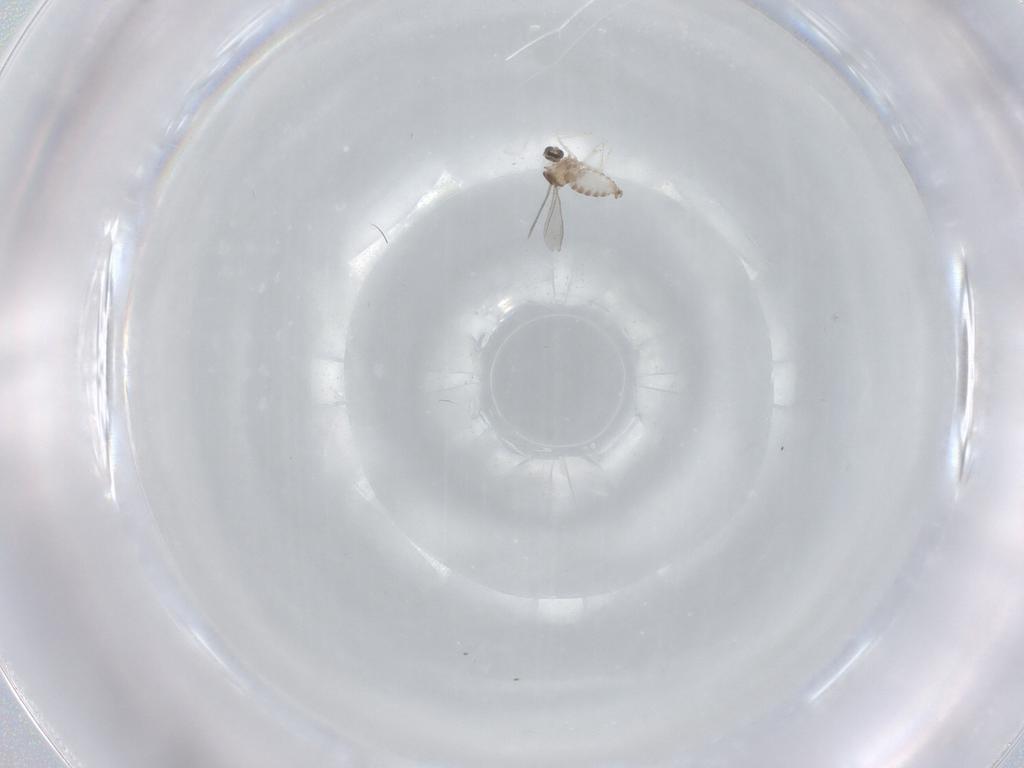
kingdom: Animalia
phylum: Arthropoda
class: Insecta
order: Diptera
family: Cecidomyiidae
